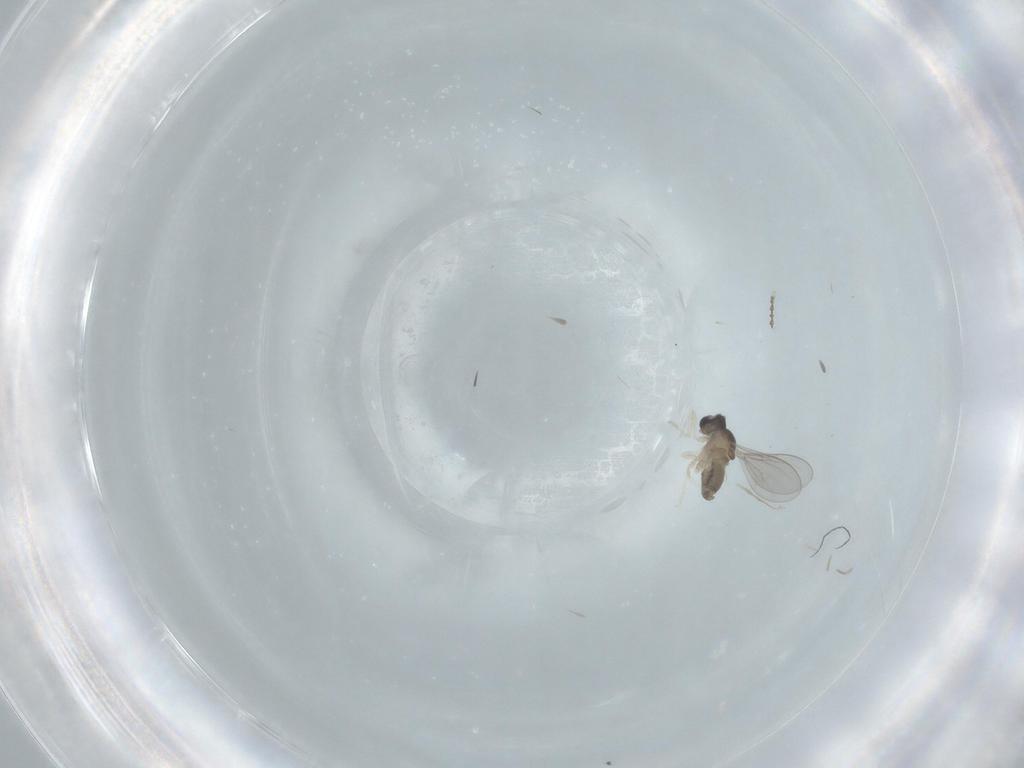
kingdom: Animalia
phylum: Arthropoda
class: Insecta
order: Diptera
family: Cecidomyiidae
